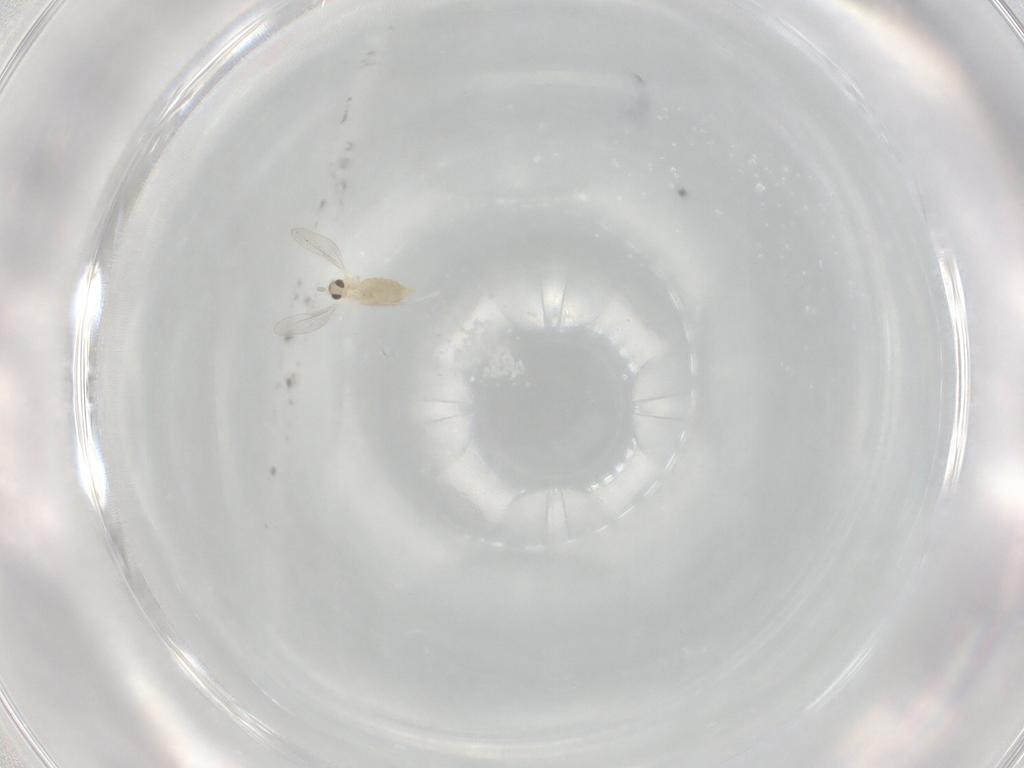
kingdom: Animalia
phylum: Arthropoda
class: Insecta
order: Diptera
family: Cecidomyiidae
